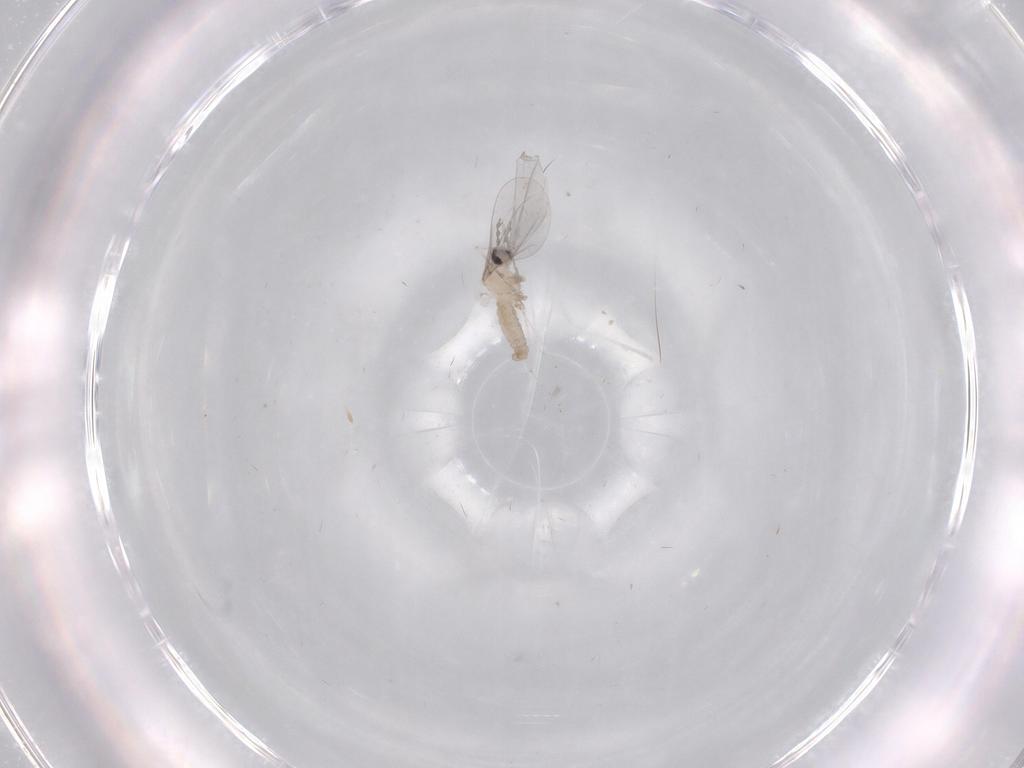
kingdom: Animalia
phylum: Arthropoda
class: Insecta
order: Diptera
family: Cecidomyiidae
